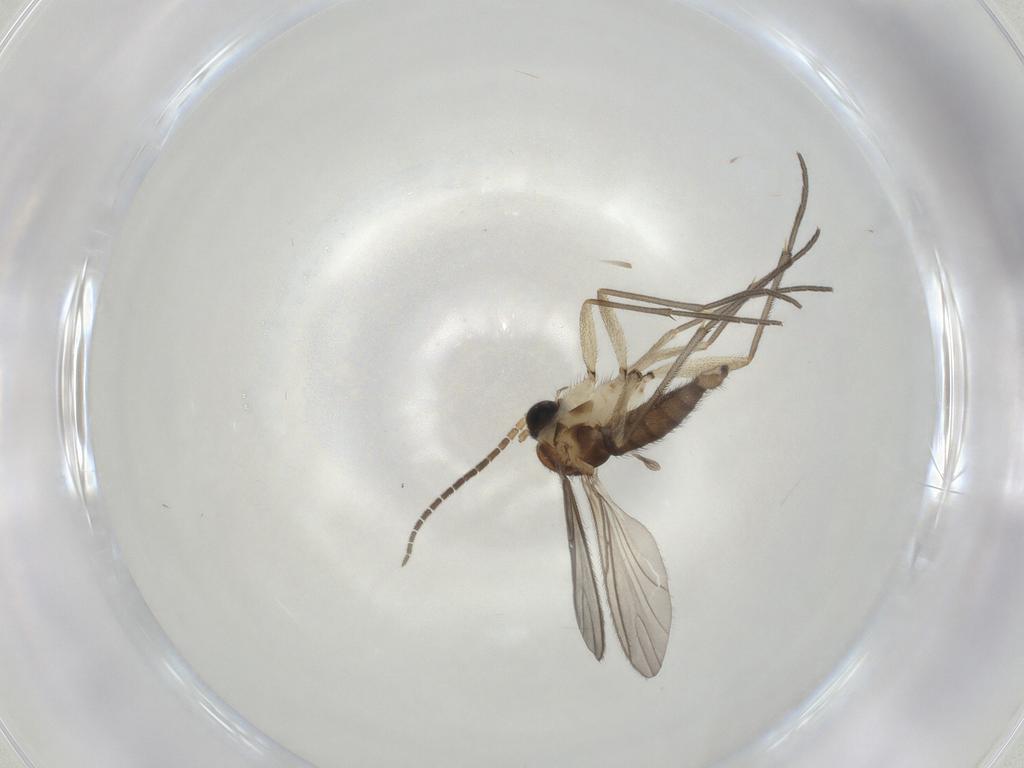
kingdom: Animalia
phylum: Arthropoda
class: Insecta
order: Diptera
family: Sciaridae
